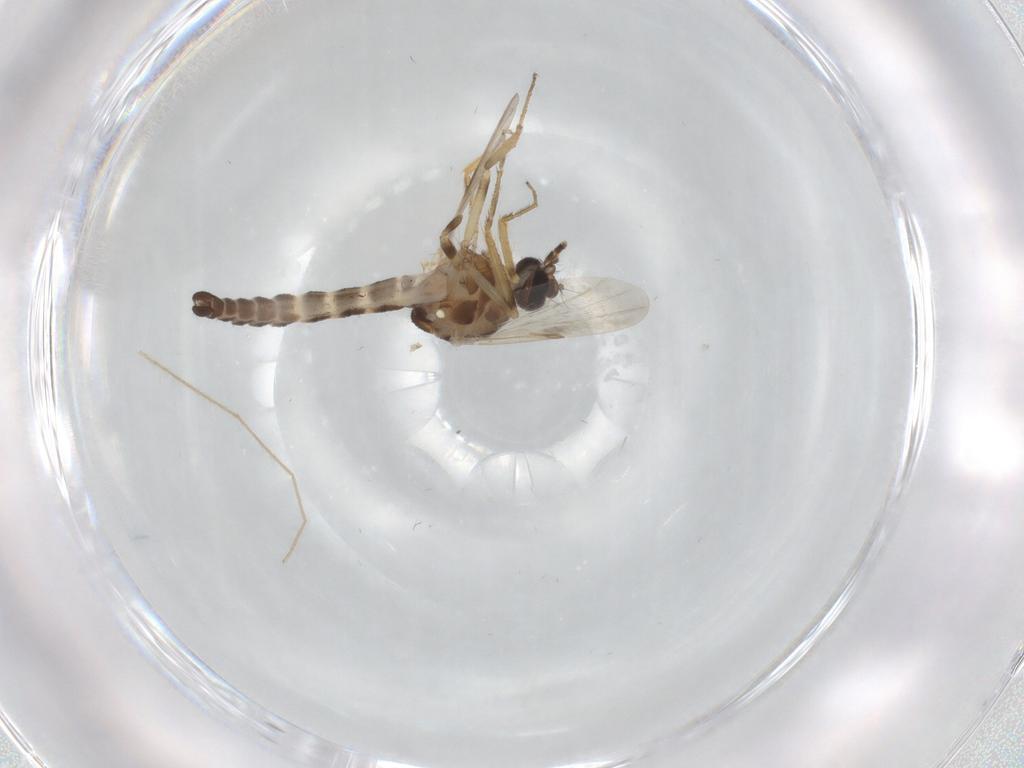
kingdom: Animalia
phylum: Arthropoda
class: Insecta
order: Diptera
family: Ceratopogonidae
